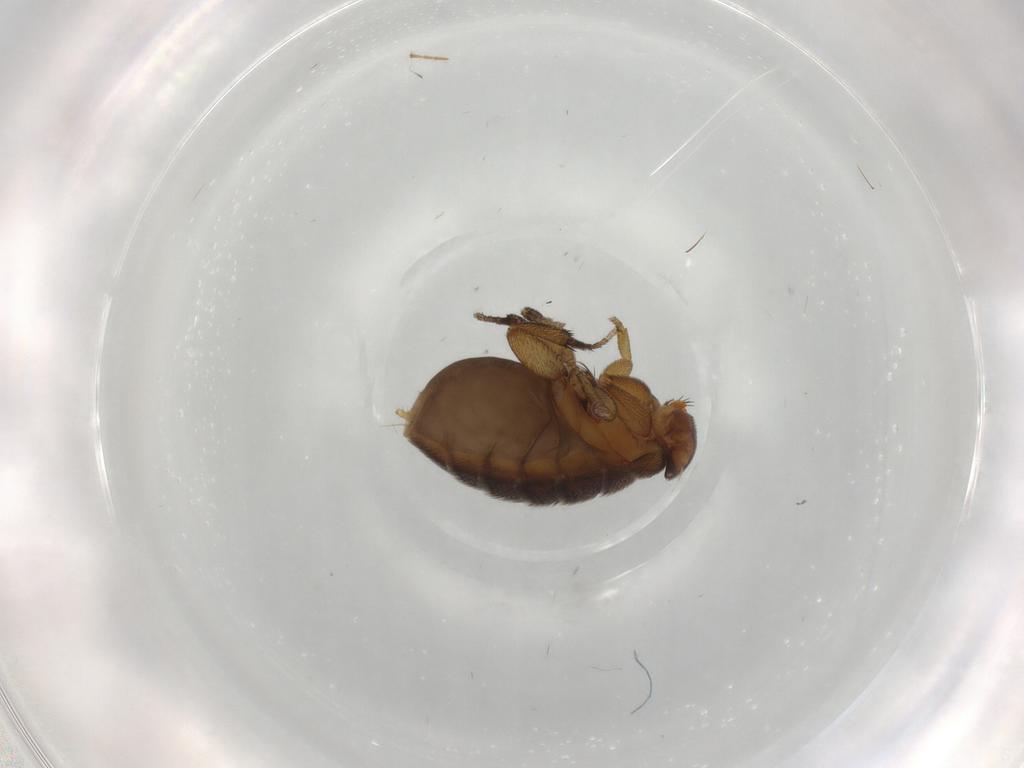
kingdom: Animalia
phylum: Arthropoda
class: Insecta
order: Diptera
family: Phoridae
